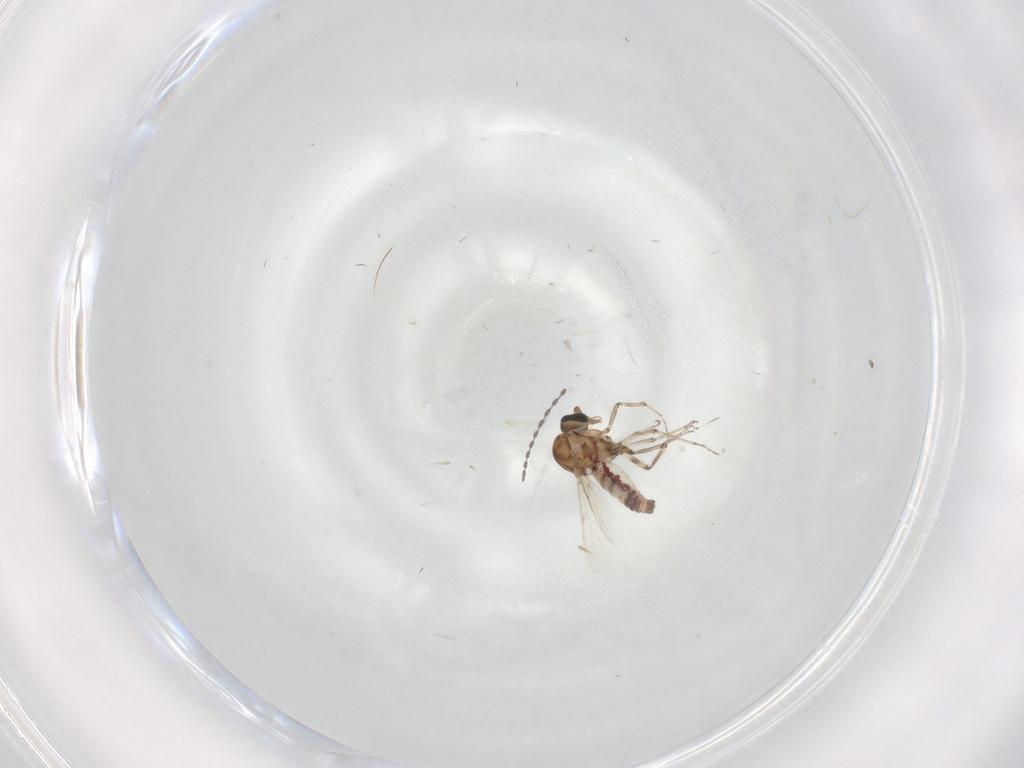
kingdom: Animalia
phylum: Arthropoda
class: Insecta
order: Diptera
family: Ceratopogonidae
